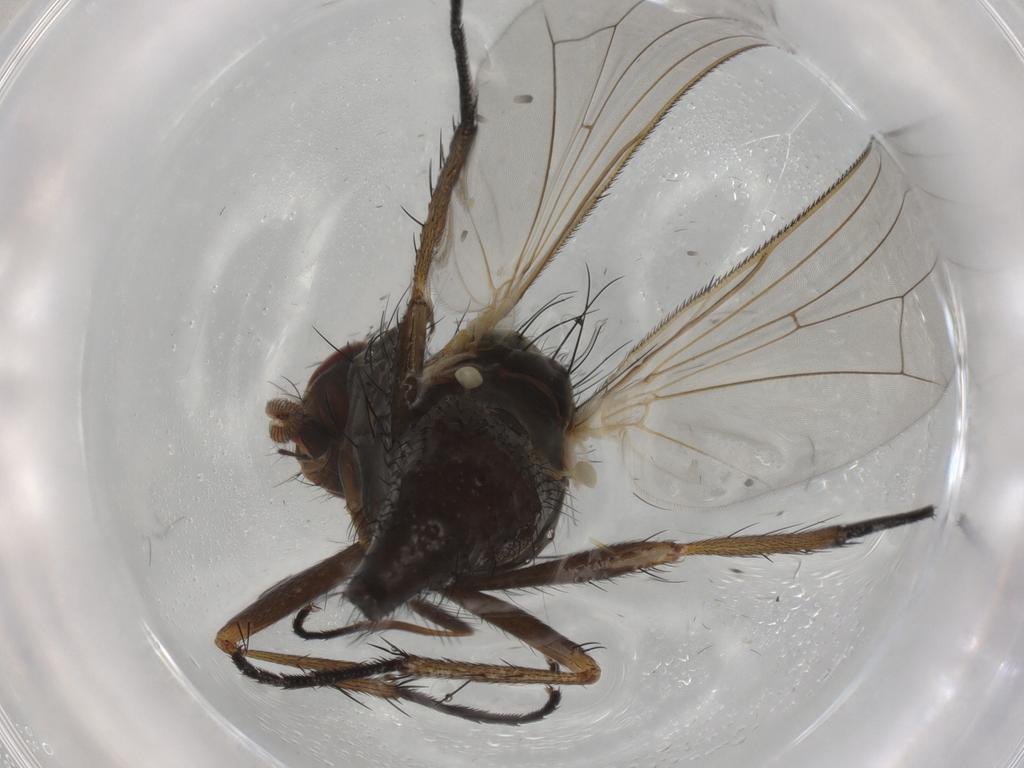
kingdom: Animalia
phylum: Arthropoda
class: Insecta
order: Diptera
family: Anthomyiidae
